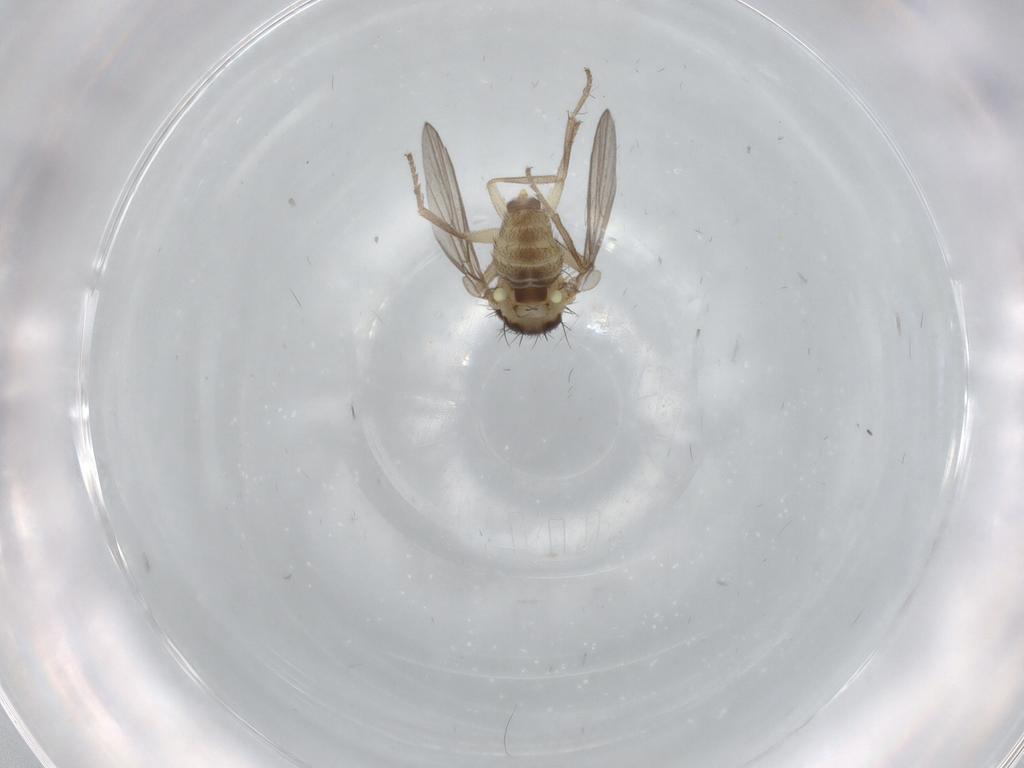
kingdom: Animalia
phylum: Arthropoda
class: Insecta
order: Diptera
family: Agromyzidae
